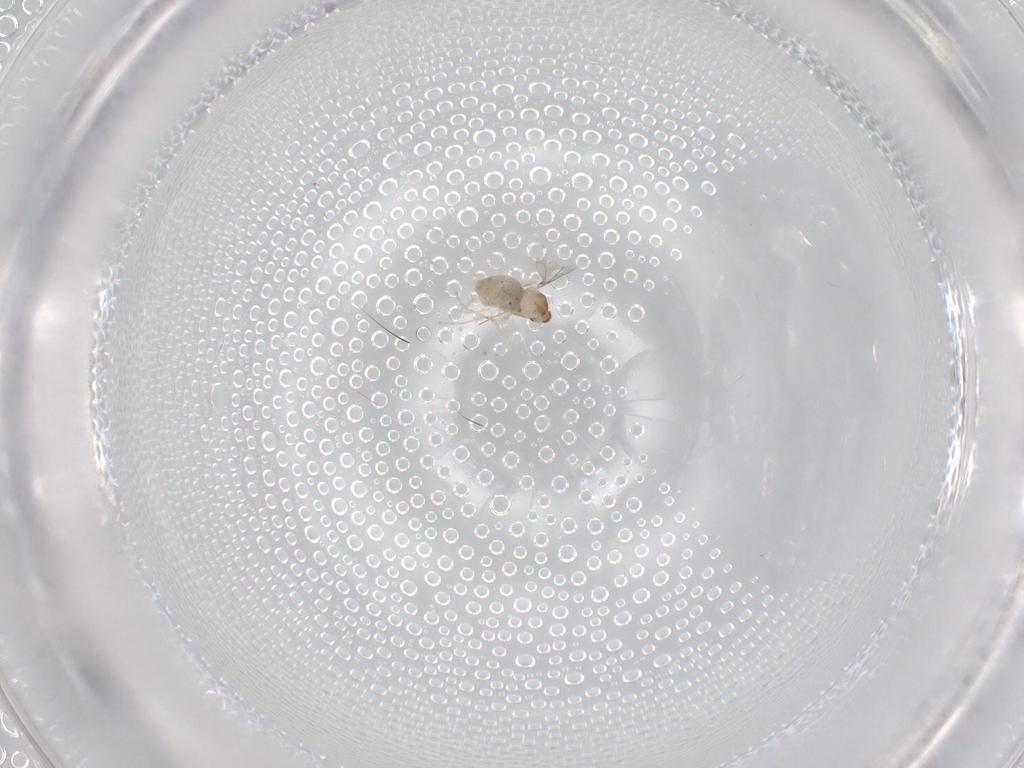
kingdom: Animalia
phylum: Arthropoda
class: Insecta
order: Diptera
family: Cecidomyiidae
